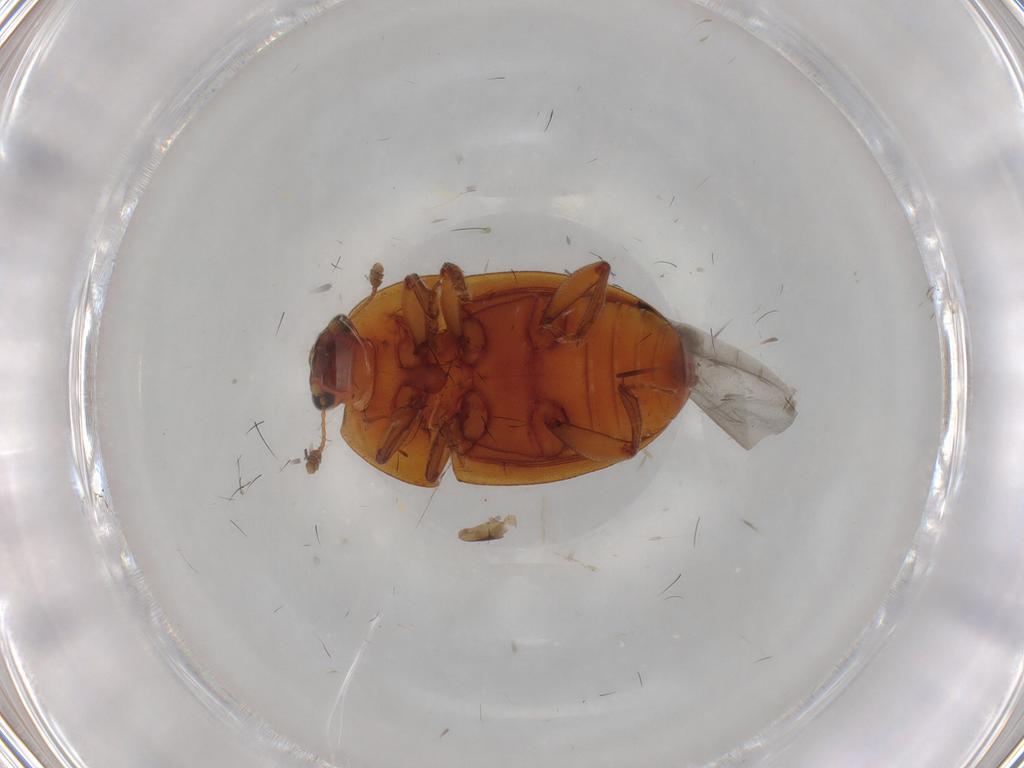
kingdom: Animalia
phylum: Arthropoda
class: Insecta
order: Coleoptera
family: Nitidulidae
